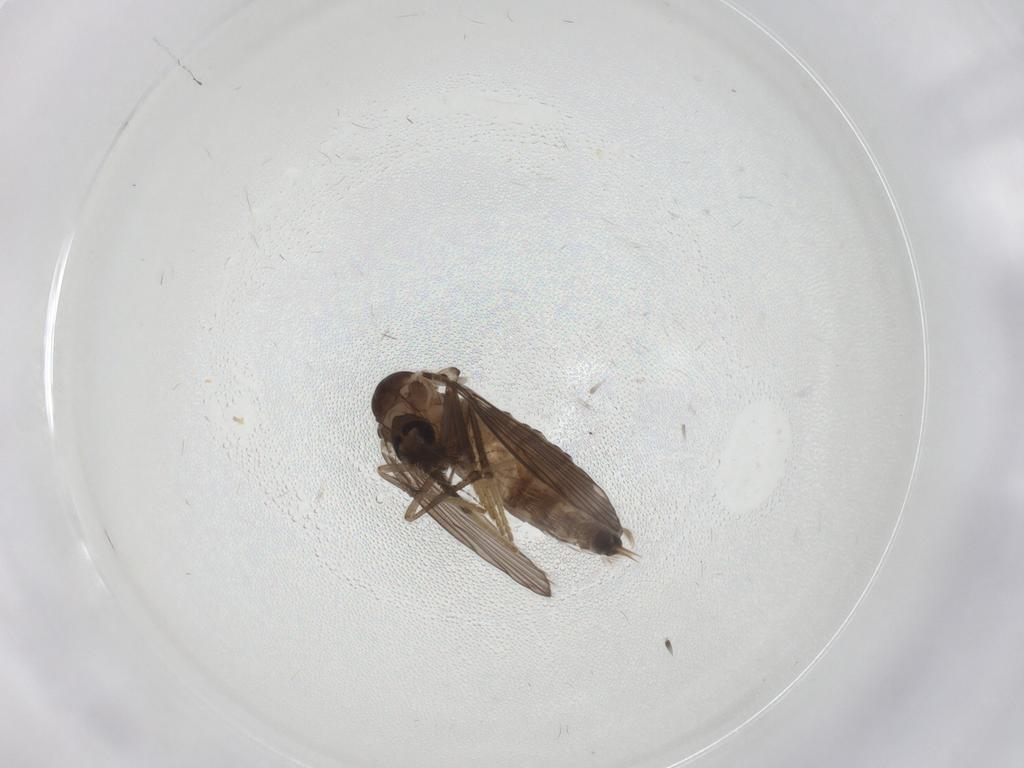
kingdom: Animalia
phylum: Arthropoda
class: Insecta
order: Diptera
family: Psychodidae
